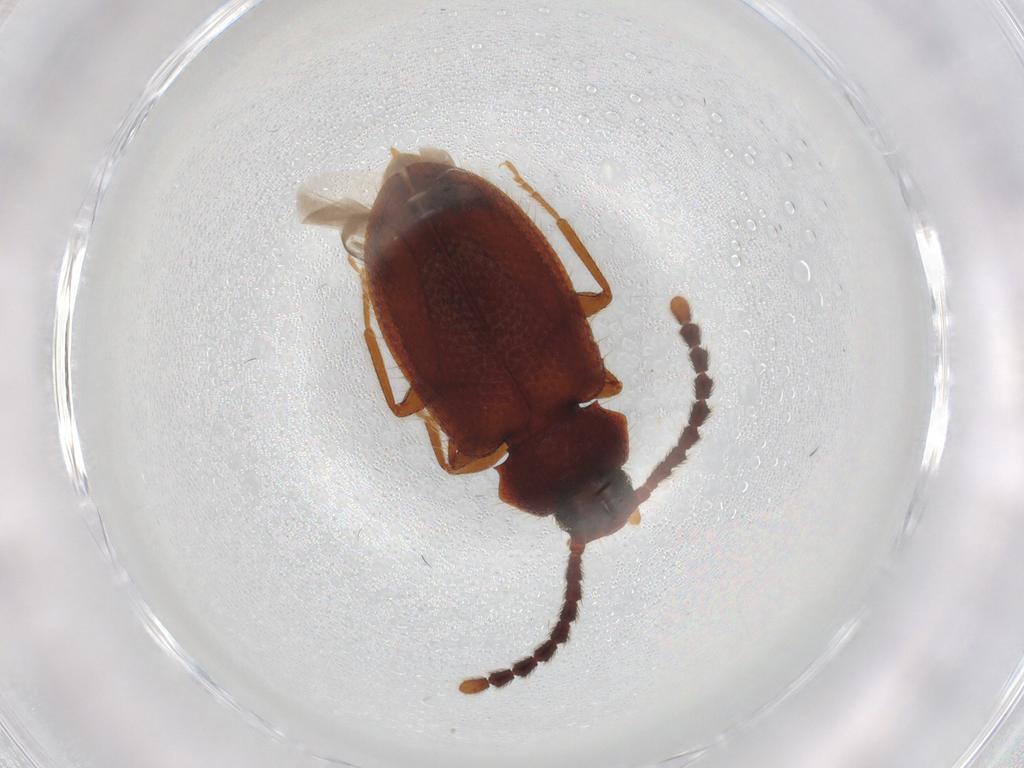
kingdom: Animalia
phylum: Arthropoda
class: Insecta
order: Coleoptera
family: Tenebrionidae
